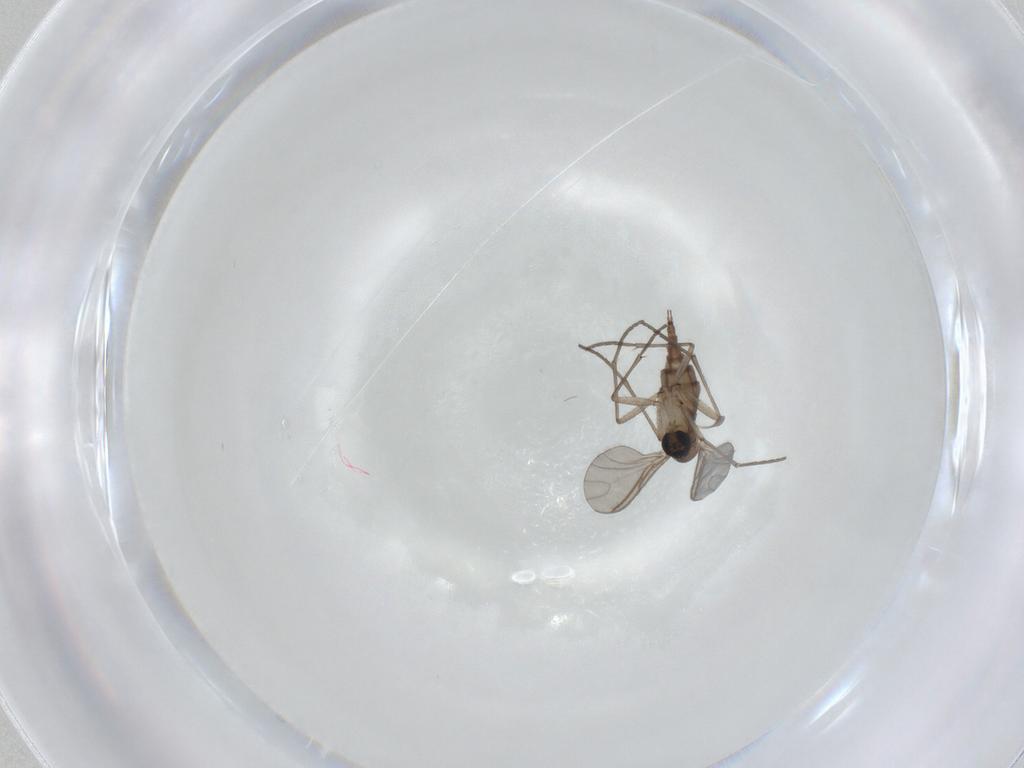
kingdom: Animalia
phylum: Arthropoda
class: Insecta
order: Diptera
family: Sciaridae
